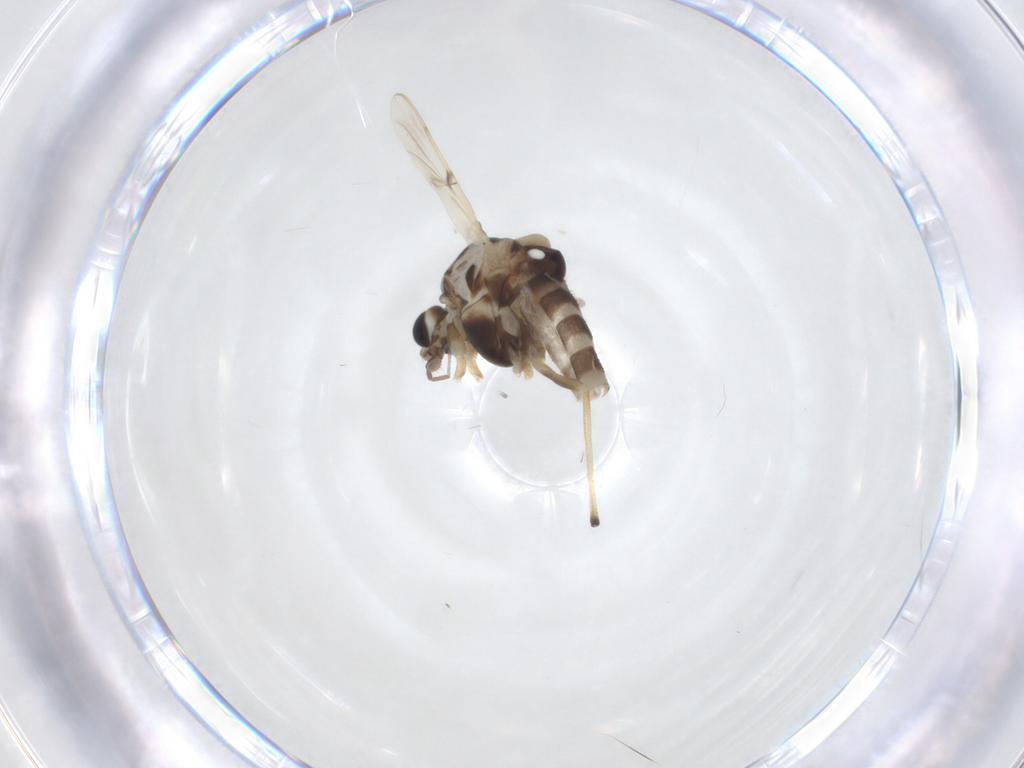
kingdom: Animalia
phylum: Arthropoda
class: Insecta
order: Diptera
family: Chironomidae
